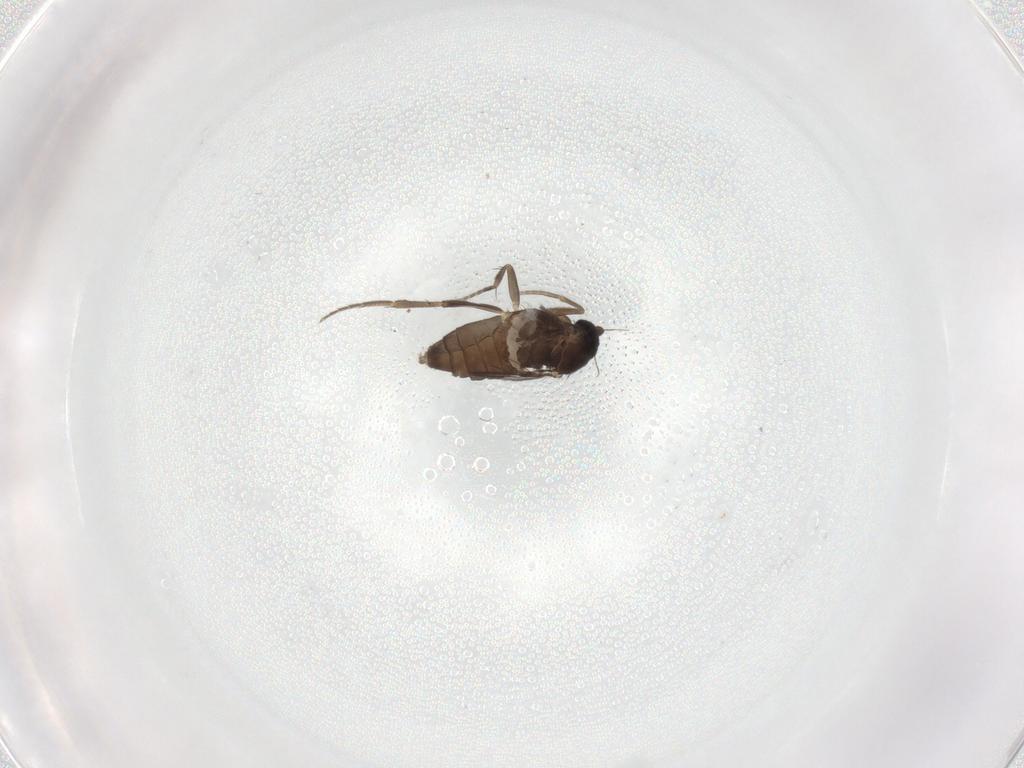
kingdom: Animalia
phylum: Arthropoda
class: Insecta
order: Diptera
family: Phoridae
